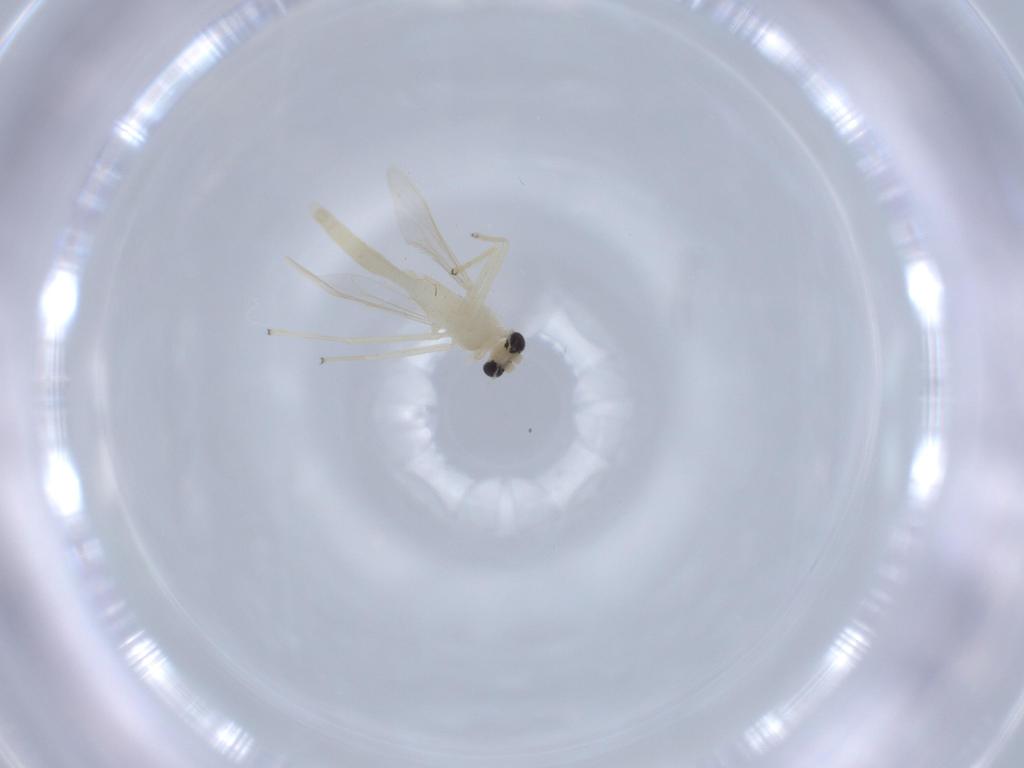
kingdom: Animalia
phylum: Arthropoda
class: Insecta
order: Diptera
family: Chironomidae
